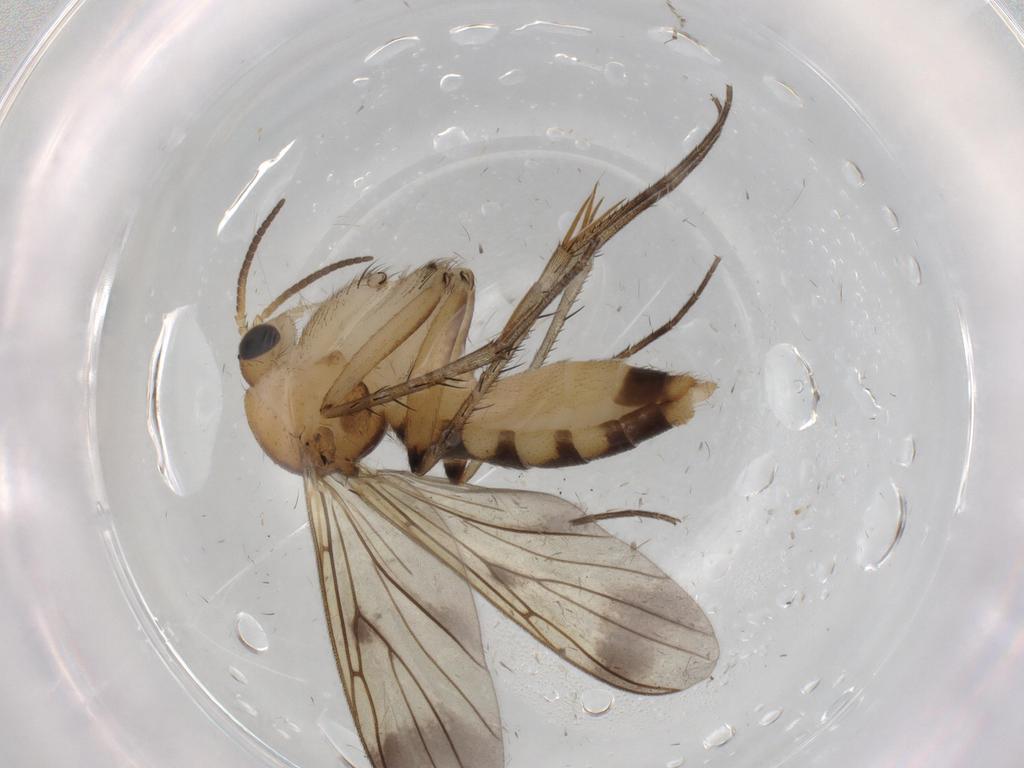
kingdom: Animalia
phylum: Arthropoda
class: Insecta
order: Diptera
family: Mycetophilidae
